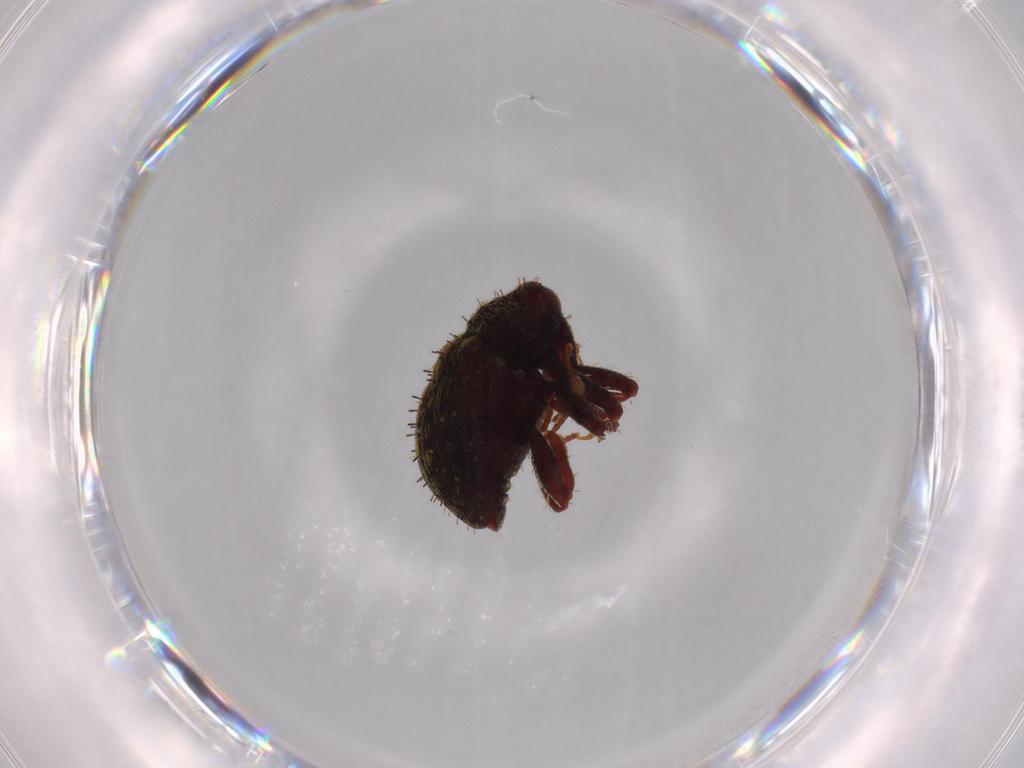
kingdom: Animalia
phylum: Arthropoda
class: Insecta
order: Coleoptera
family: Curculionidae
